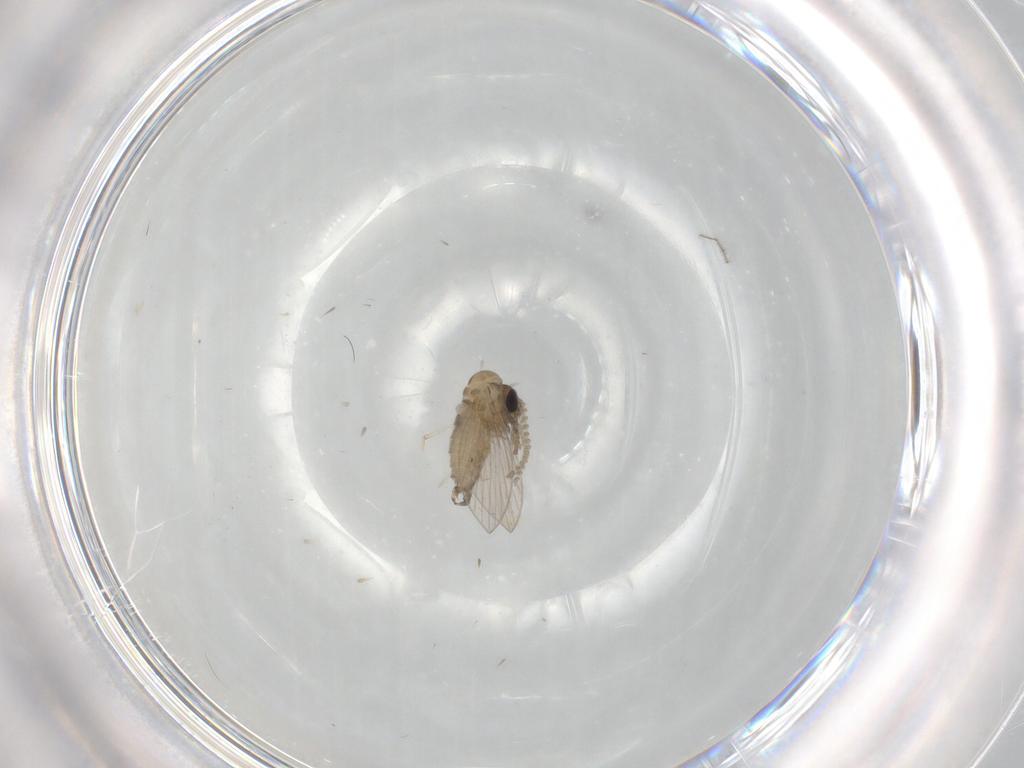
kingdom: Animalia
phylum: Arthropoda
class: Insecta
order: Diptera
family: Psychodidae
